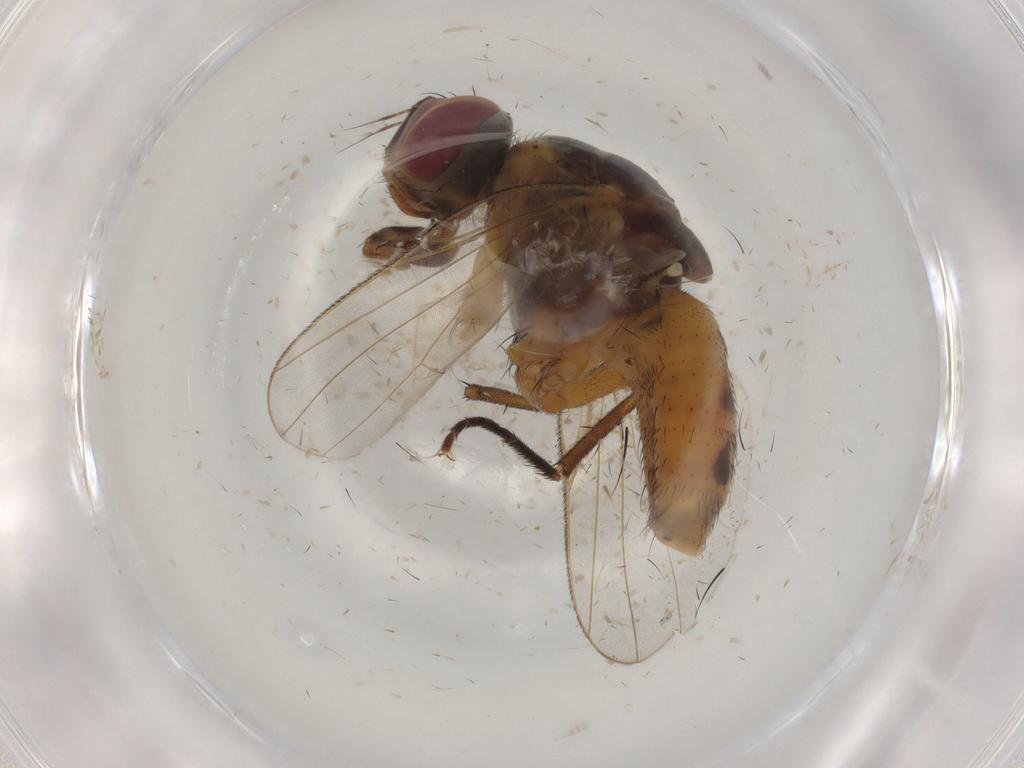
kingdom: Animalia
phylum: Arthropoda
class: Insecta
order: Diptera
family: Muscidae
